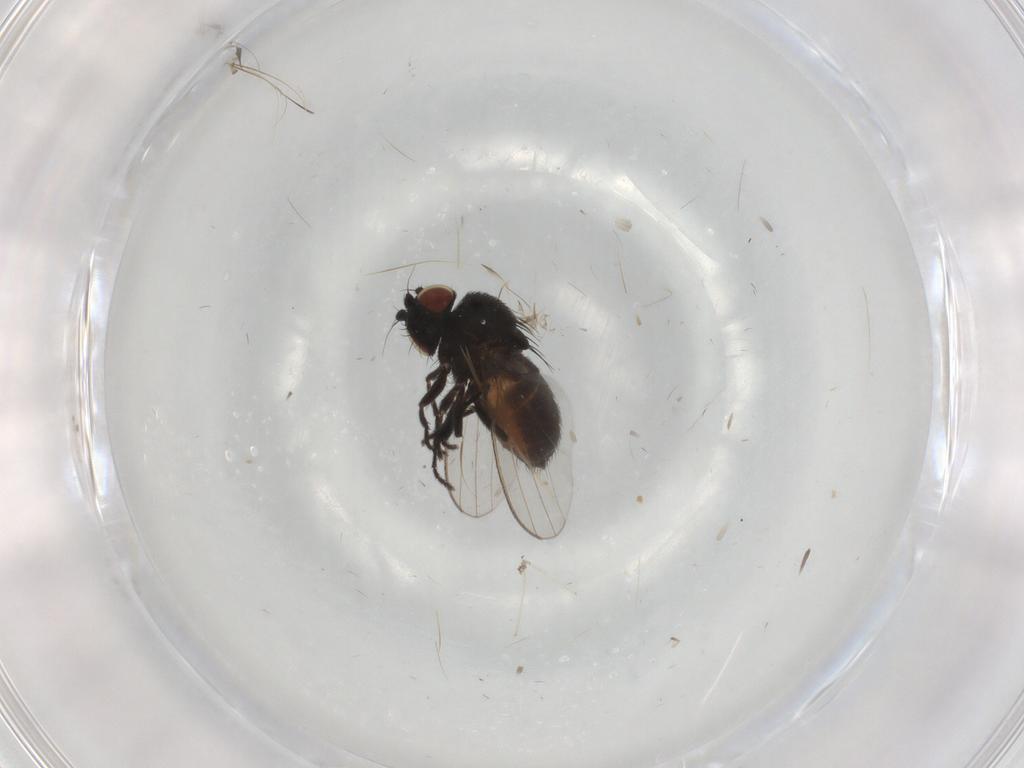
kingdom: Animalia
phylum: Arthropoda
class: Insecta
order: Diptera
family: Milichiidae
